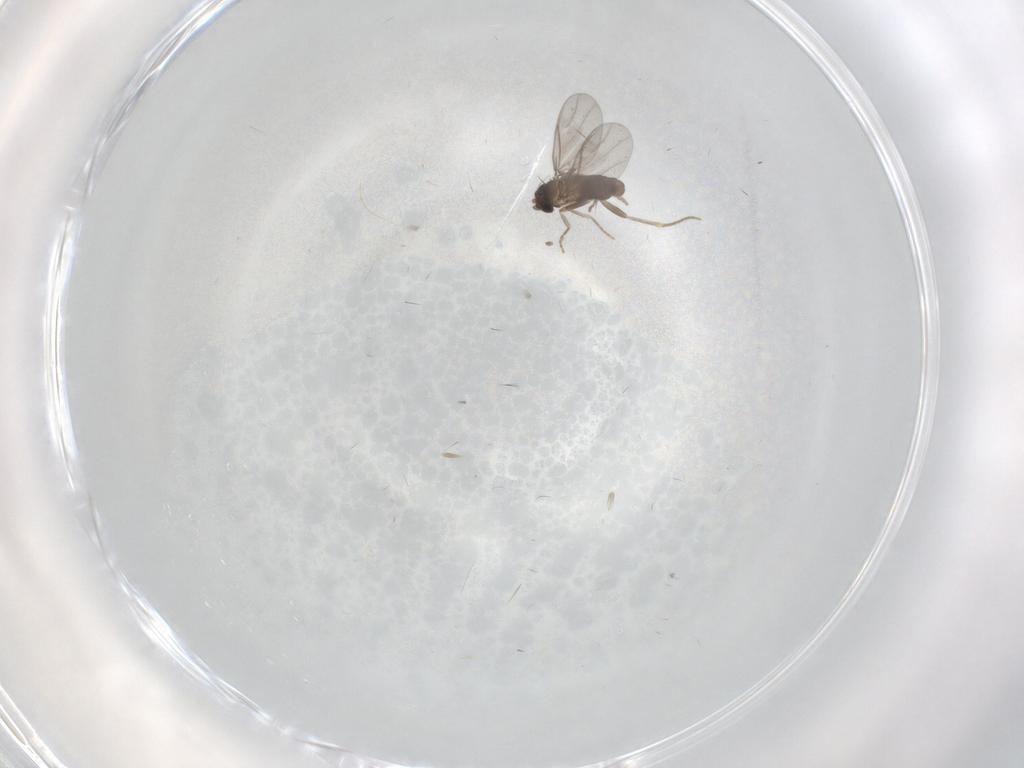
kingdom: Animalia
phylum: Arthropoda
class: Insecta
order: Diptera
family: Cecidomyiidae
